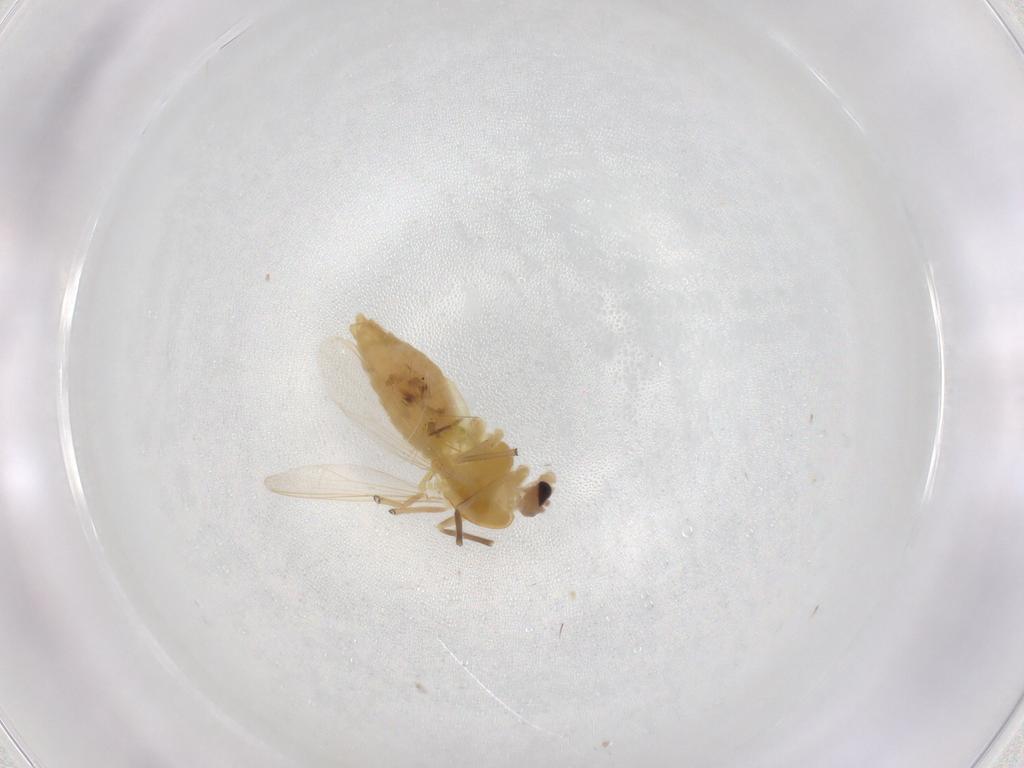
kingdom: Animalia
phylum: Arthropoda
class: Insecta
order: Diptera
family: Chironomidae
